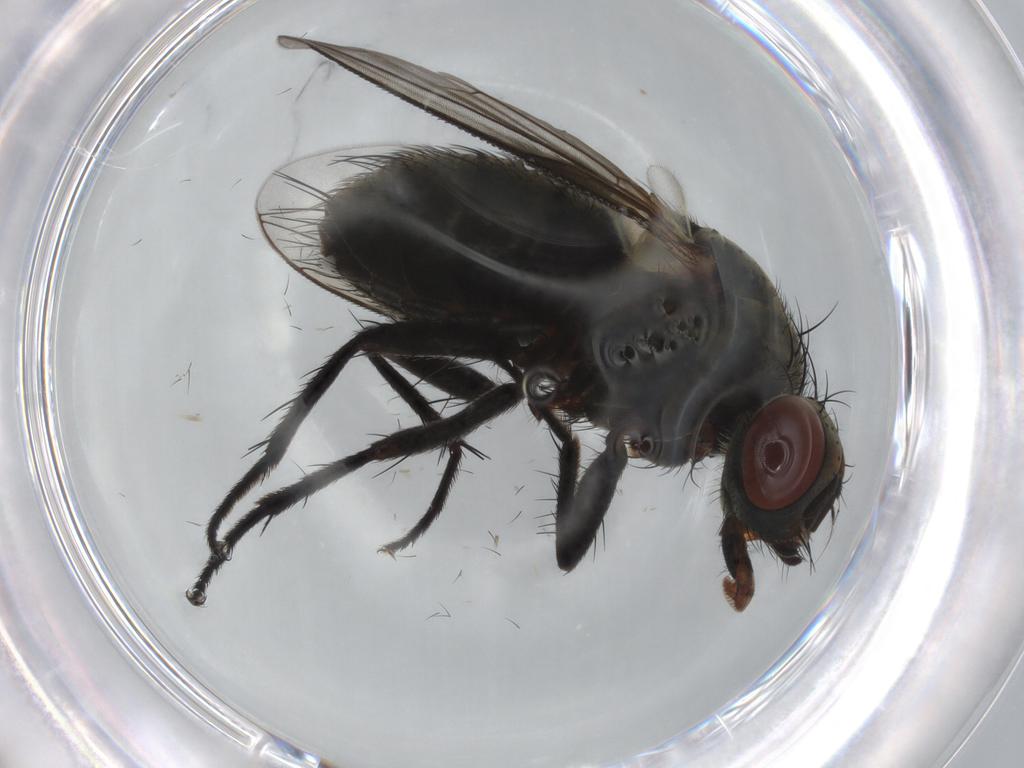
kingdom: Animalia
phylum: Arthropoda
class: Insecta
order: Diptera
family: Sarcophagidae
